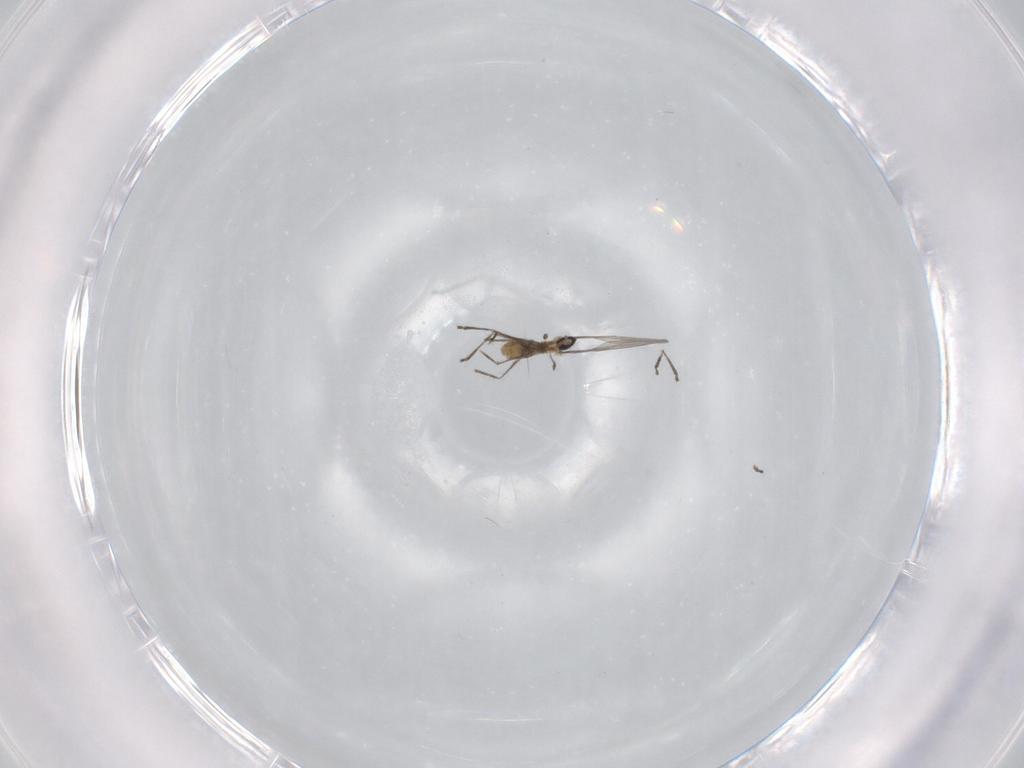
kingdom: Animalia
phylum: Arthropoda
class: Insecta
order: Diptera
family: Cecidomyiidae
